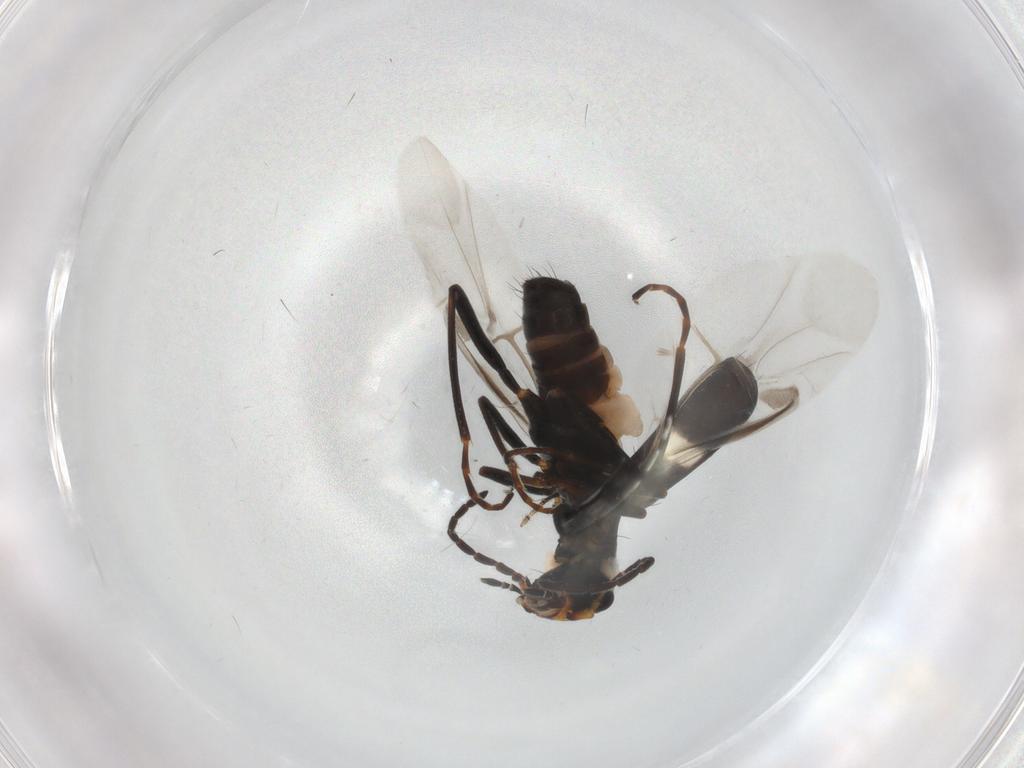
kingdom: Animalia
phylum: Arthropoda
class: Insecta
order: Coleoptera
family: Melyridae
